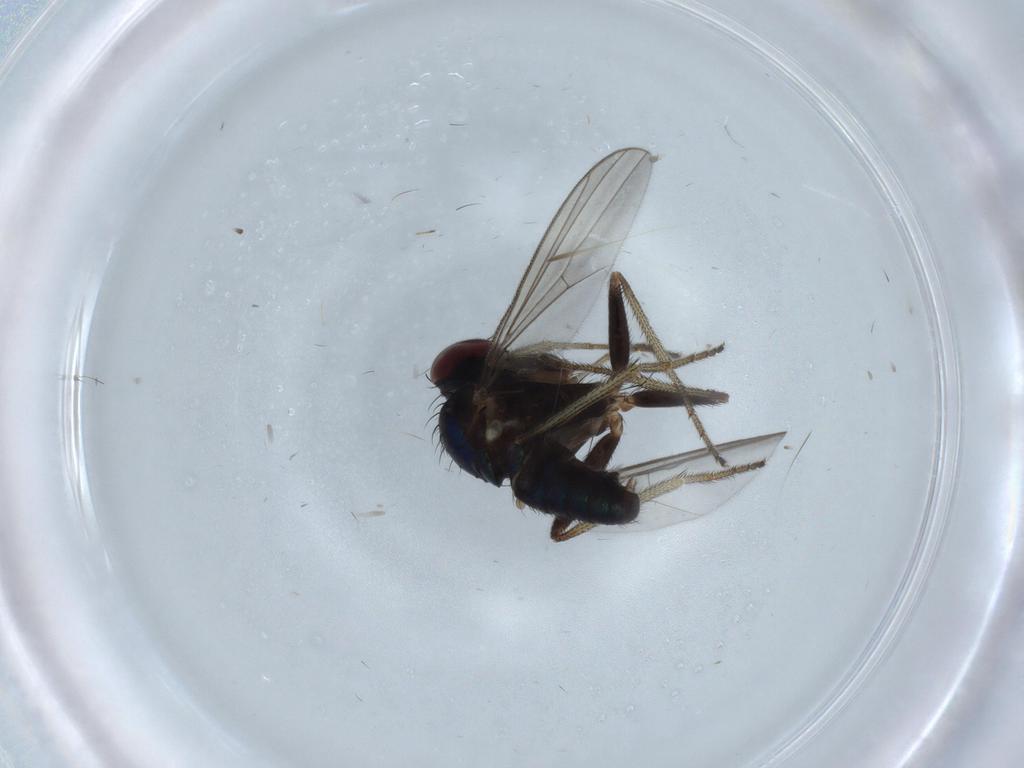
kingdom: Animalia
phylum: Arthropoda
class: Insecta
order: Diptera
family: Dolichopodidae
